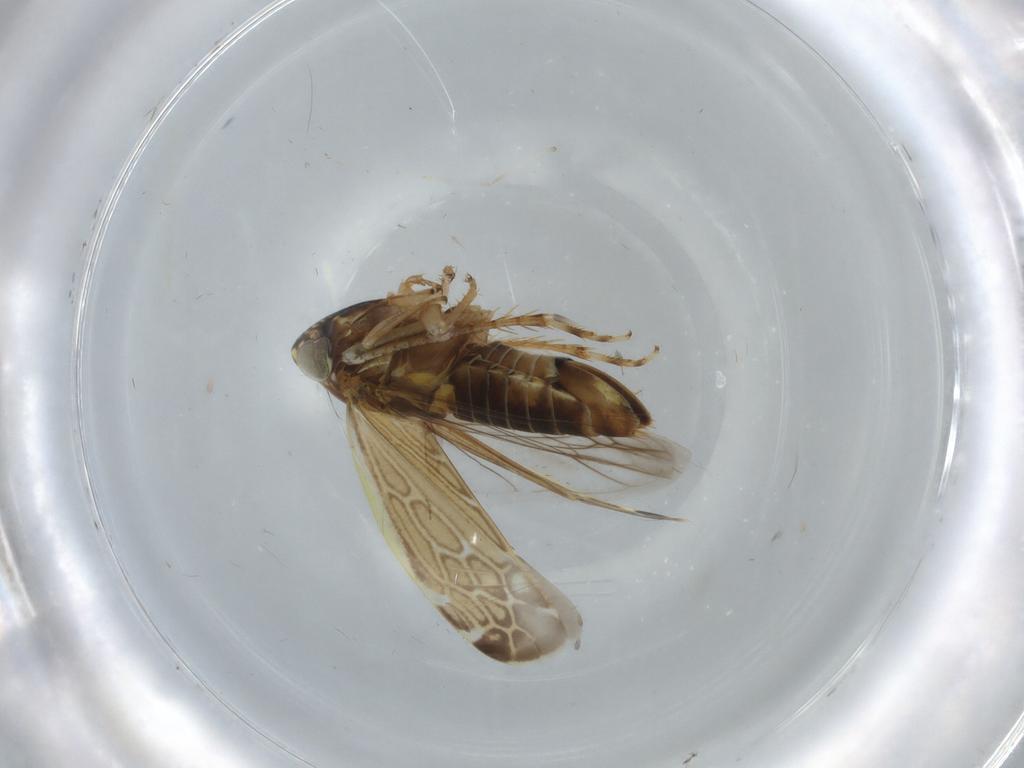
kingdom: Animalia
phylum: Arthropoda
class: Insecta
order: Hemiptera
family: Cicadellidae
